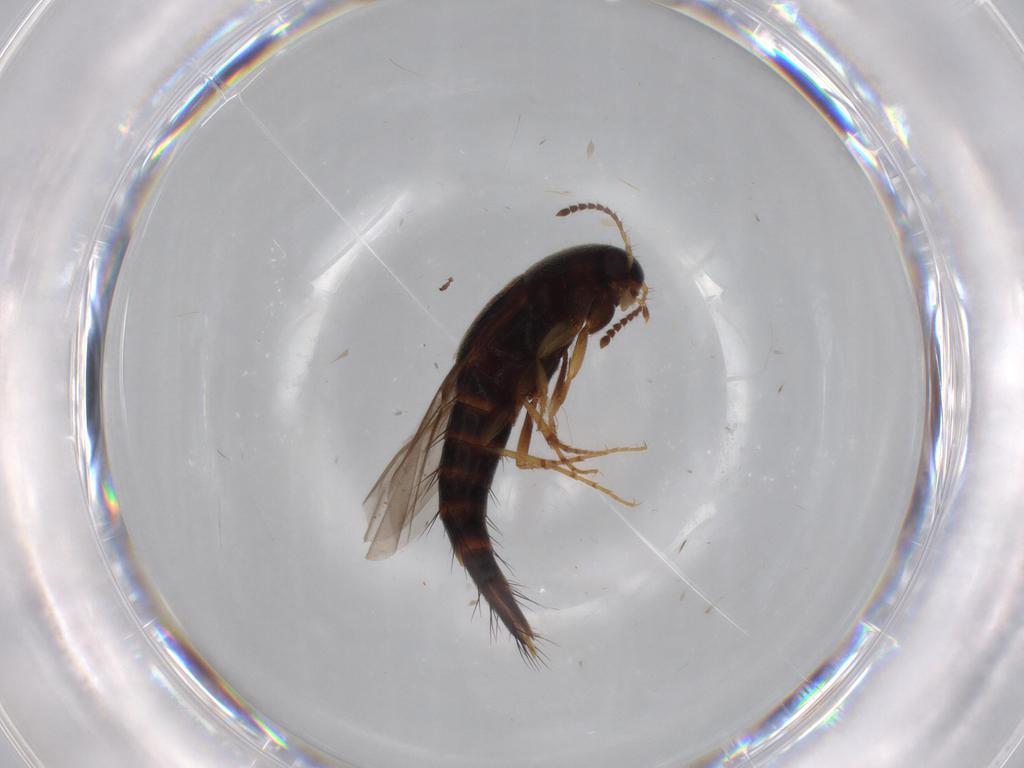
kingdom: Animalia
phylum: Arthropoda
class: Insecta
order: Coleoptera
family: Staphylinidae
